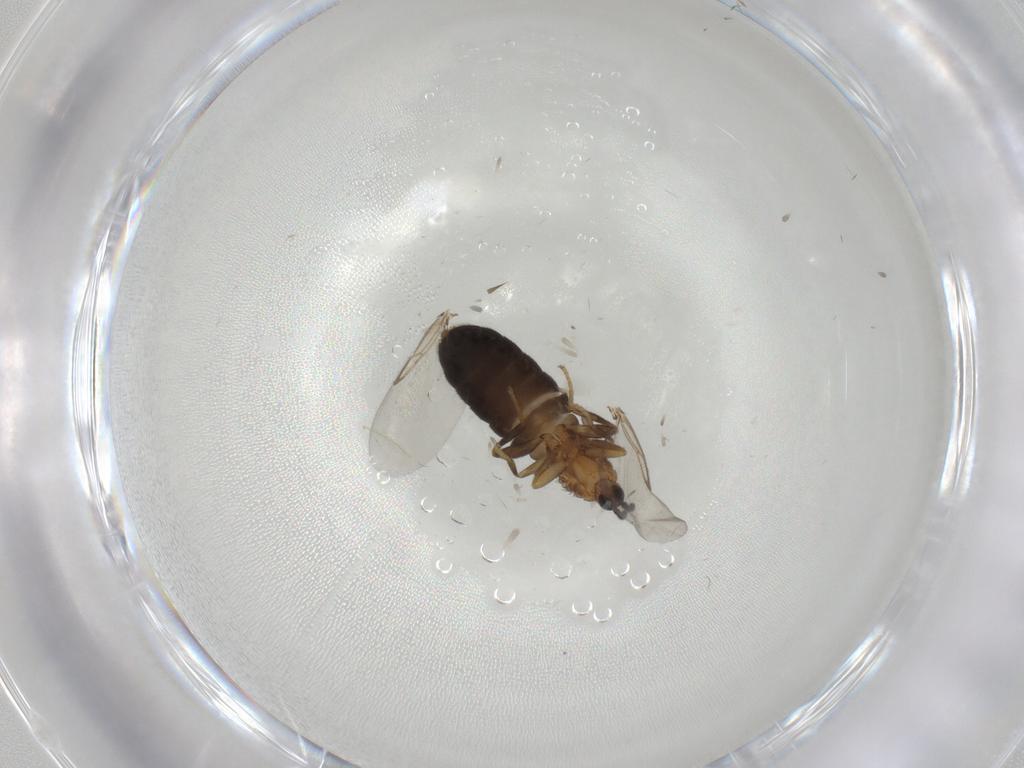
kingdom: Animalia
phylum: Arthropoda
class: Insecta
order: Diptera
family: Scatopsidae
